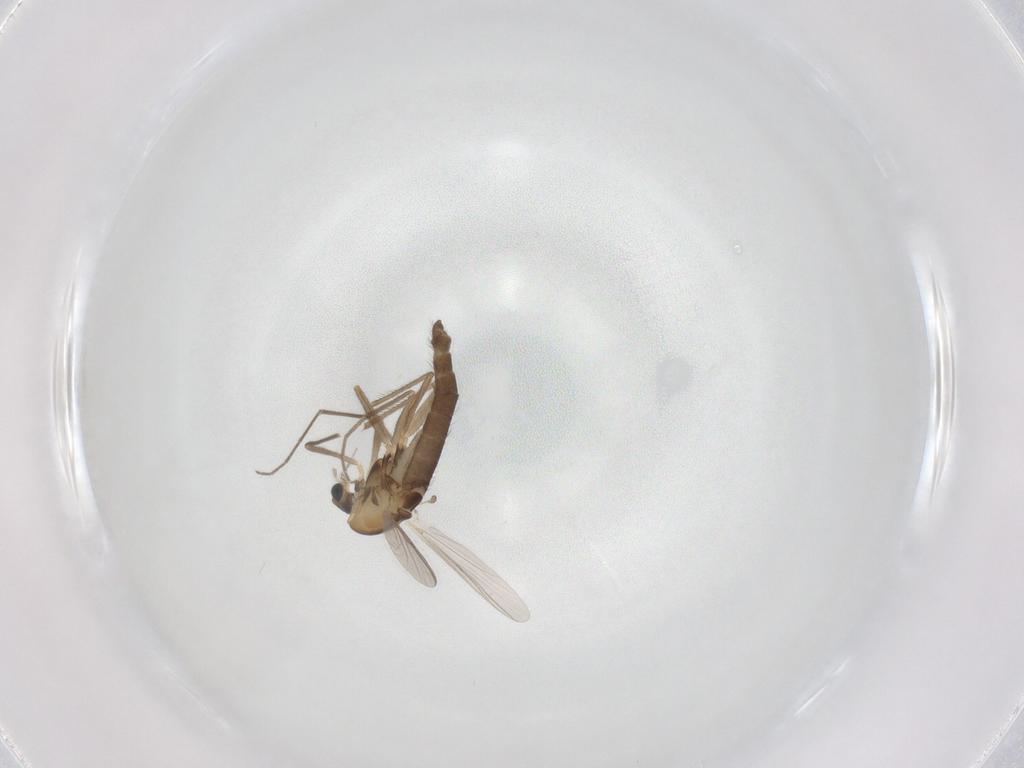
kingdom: Animalia
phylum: Arthropoda
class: Insecta
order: Diptera
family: Chironomidae
